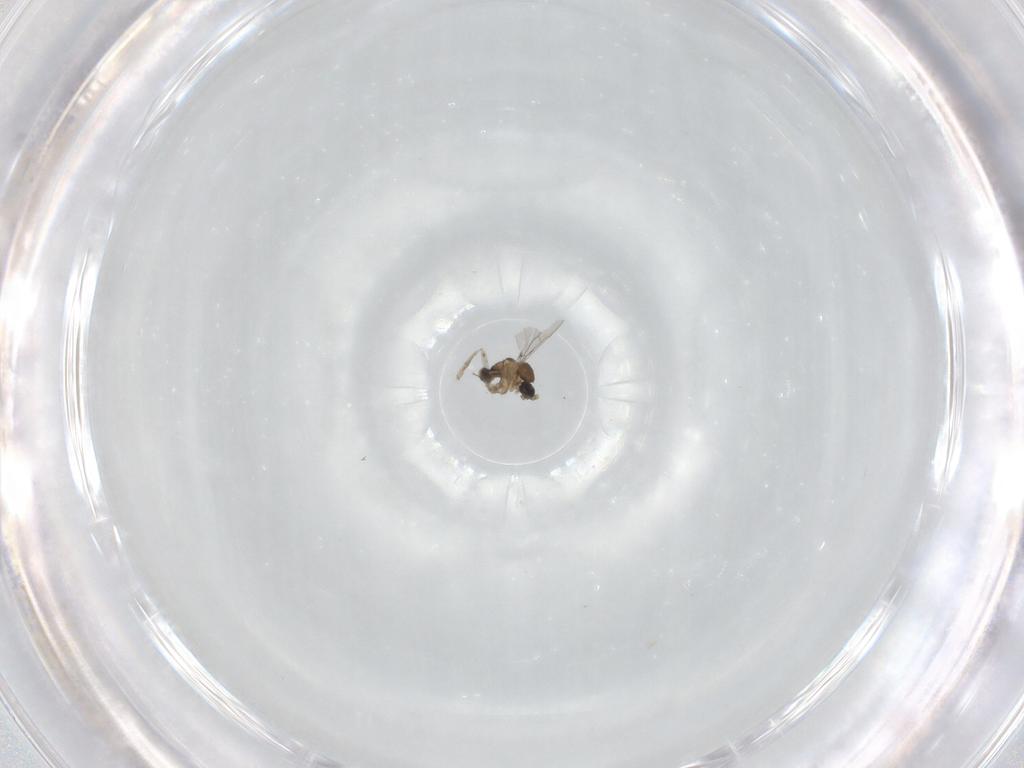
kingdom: Animalia
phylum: Arthropoda
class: Insecta
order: Diptera
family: Cecidomyiidae
